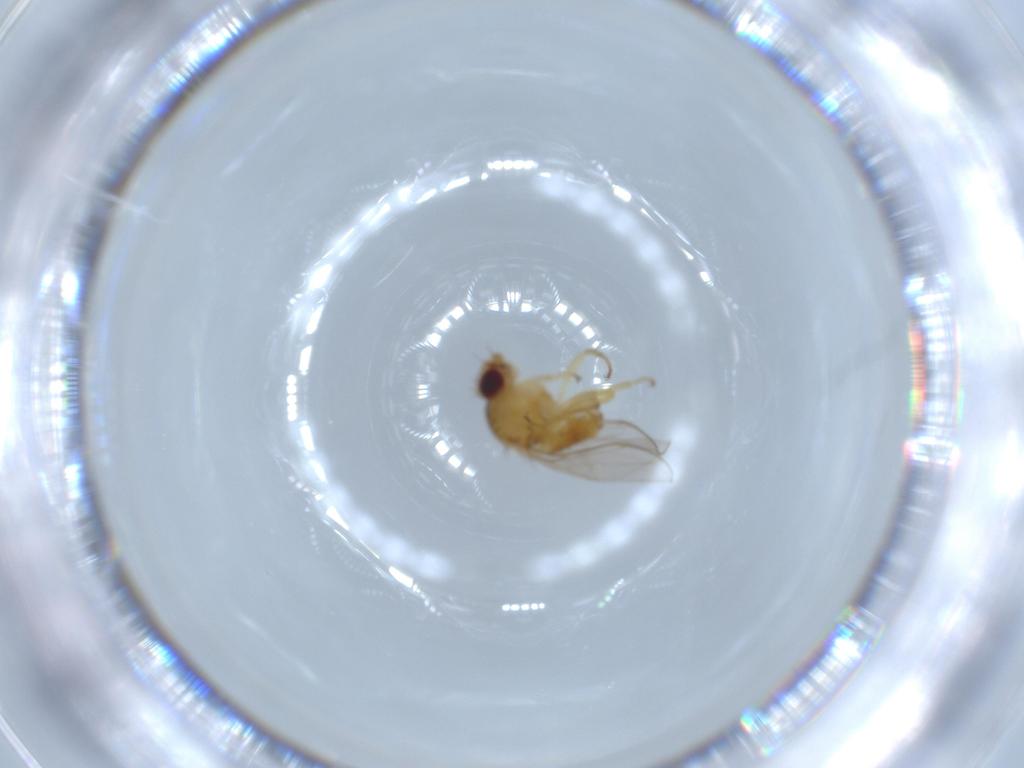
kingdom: Animalia
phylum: Arthropoda
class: Insecta
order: Diptera
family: Chloropidae
